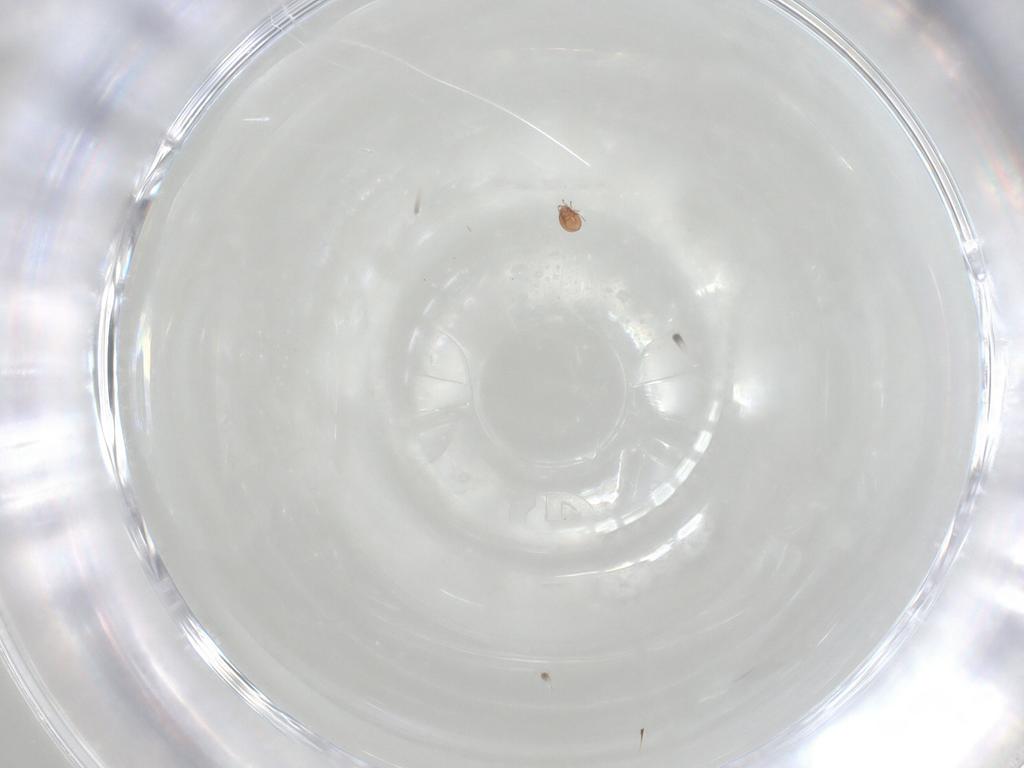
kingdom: Animalia
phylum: Arthropoda
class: Insecta
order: Diptera
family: Chironomidae
